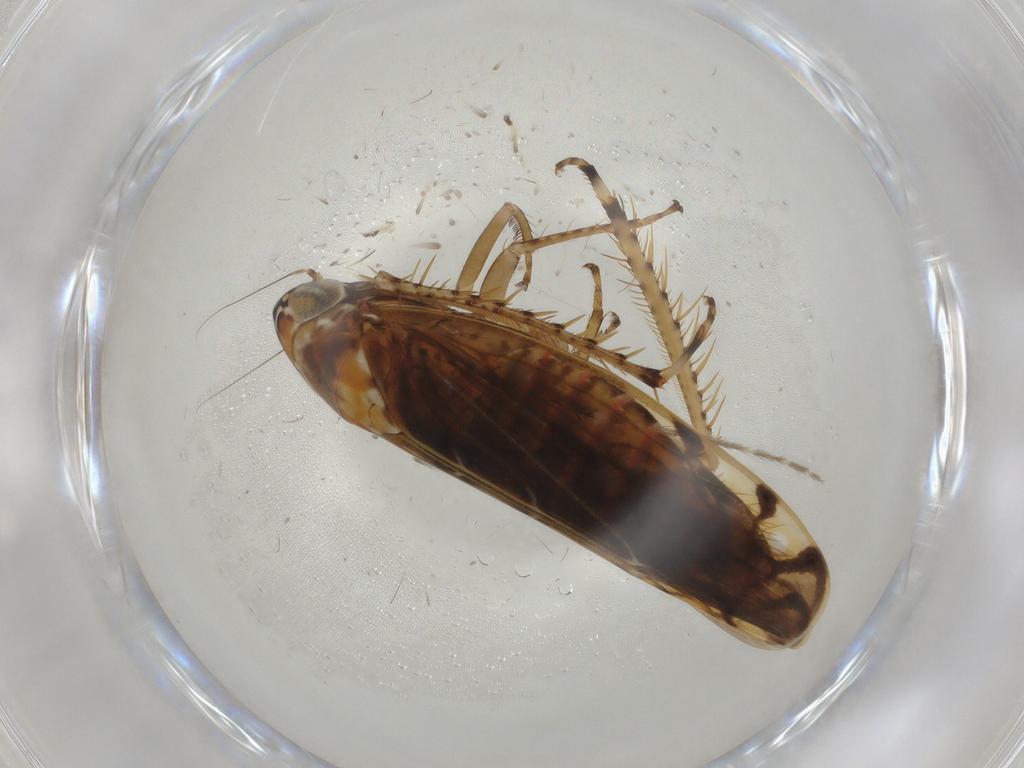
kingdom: Animalia
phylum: Arthropoda
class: Insecta
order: Hemiptera
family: Cicadellidae
